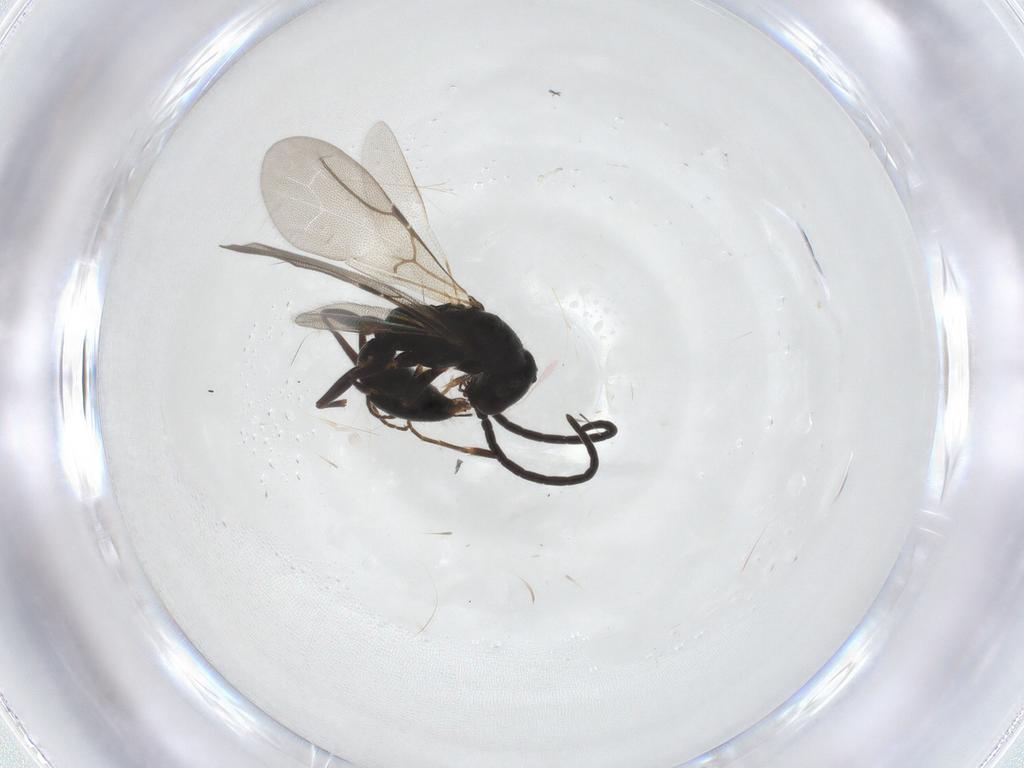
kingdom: Animalia
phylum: Arthropoda
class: Insecta
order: Hymenoptera
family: Bethylidae
